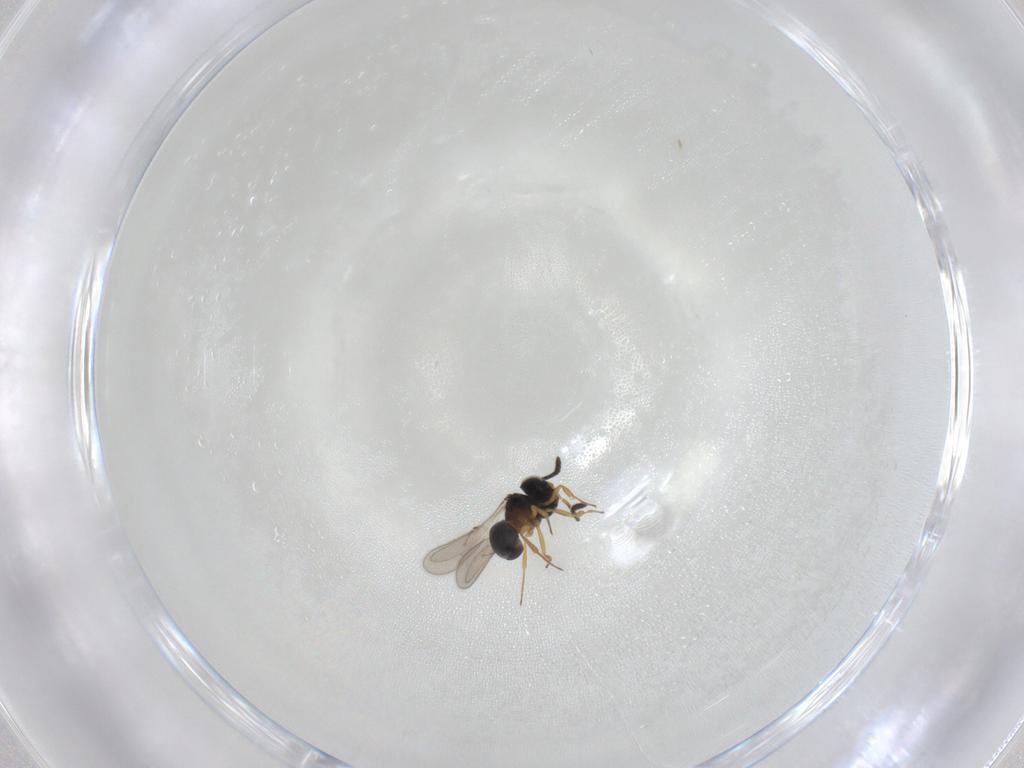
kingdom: Animalia
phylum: Arthropoda
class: Insecta
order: Hymenoptera
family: Scelionidae
